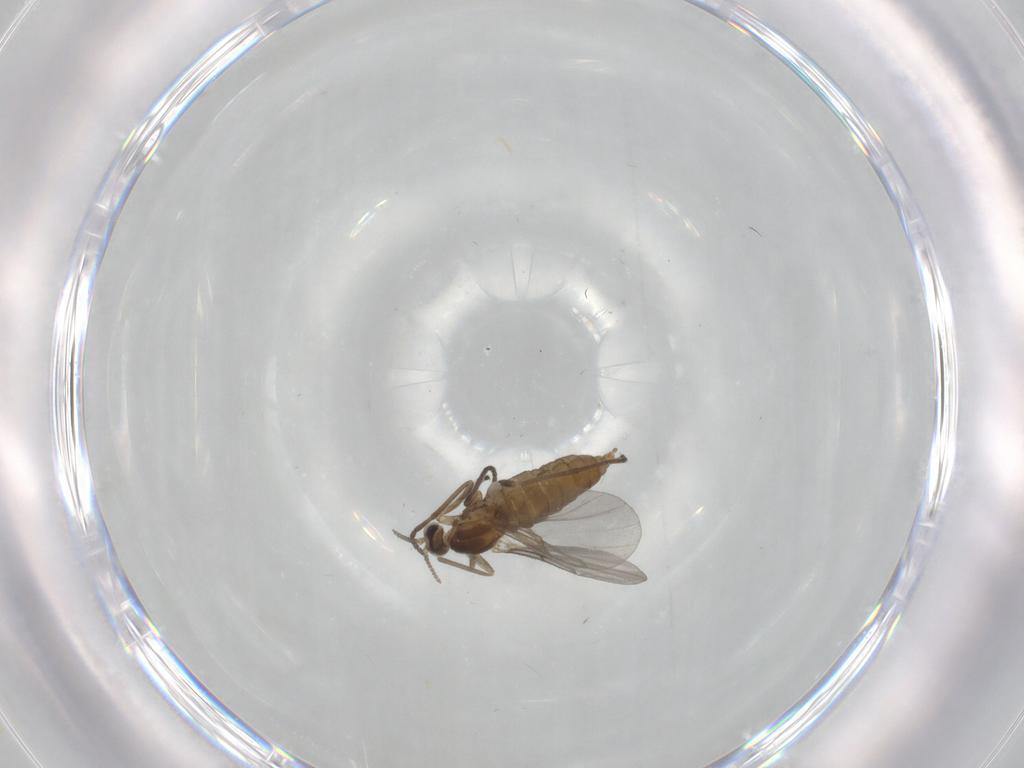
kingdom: Animalia
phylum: Arthropoda
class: Insecta
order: Diptera
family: Cecidomyiidae
